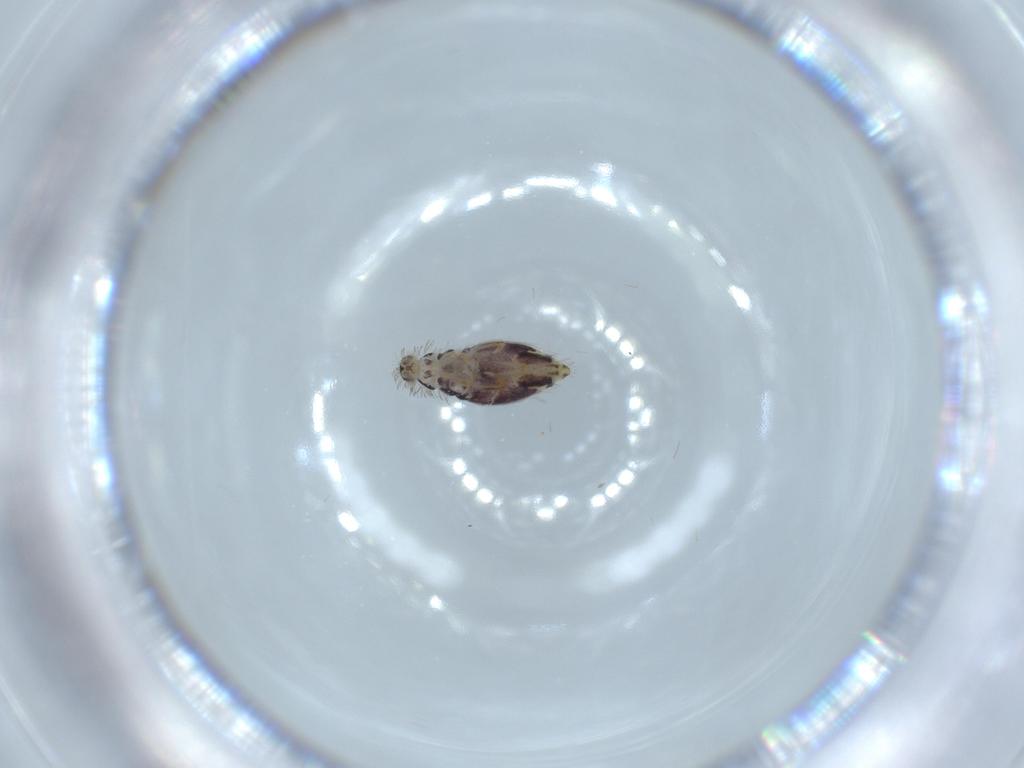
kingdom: Animalia
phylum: Arthropoda
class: Collembola
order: Entomobryomorpha
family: Entomobryidae
